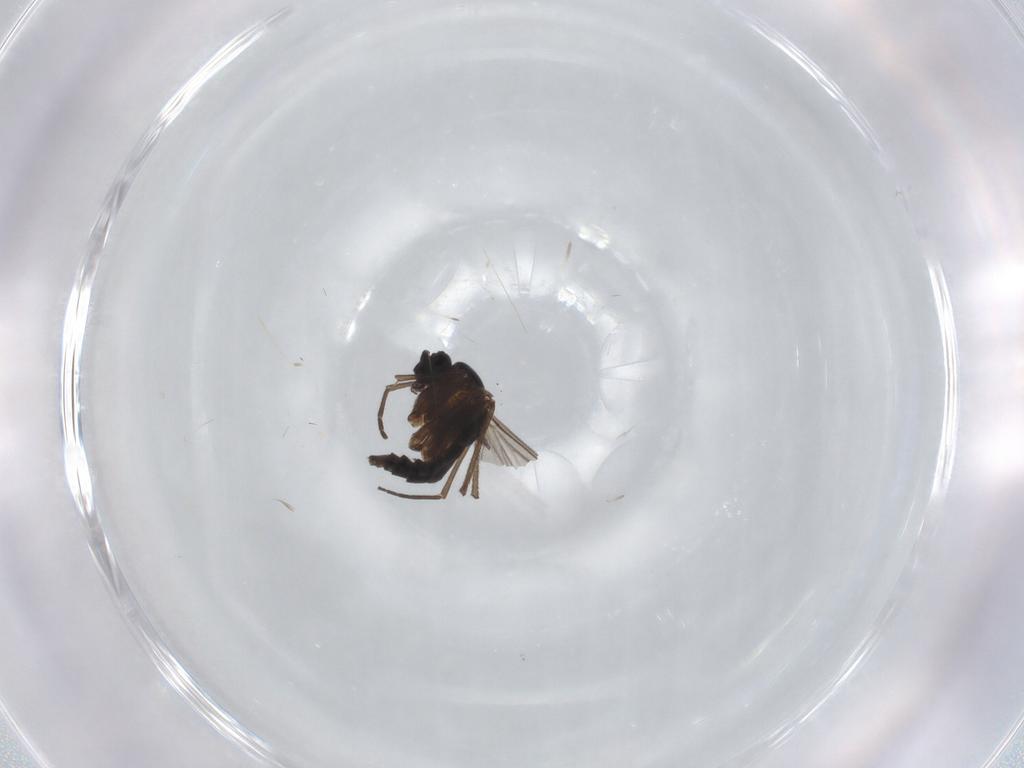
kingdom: Animalia
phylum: Arthropoda
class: Insecta
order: Diptera
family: Sciaridae
